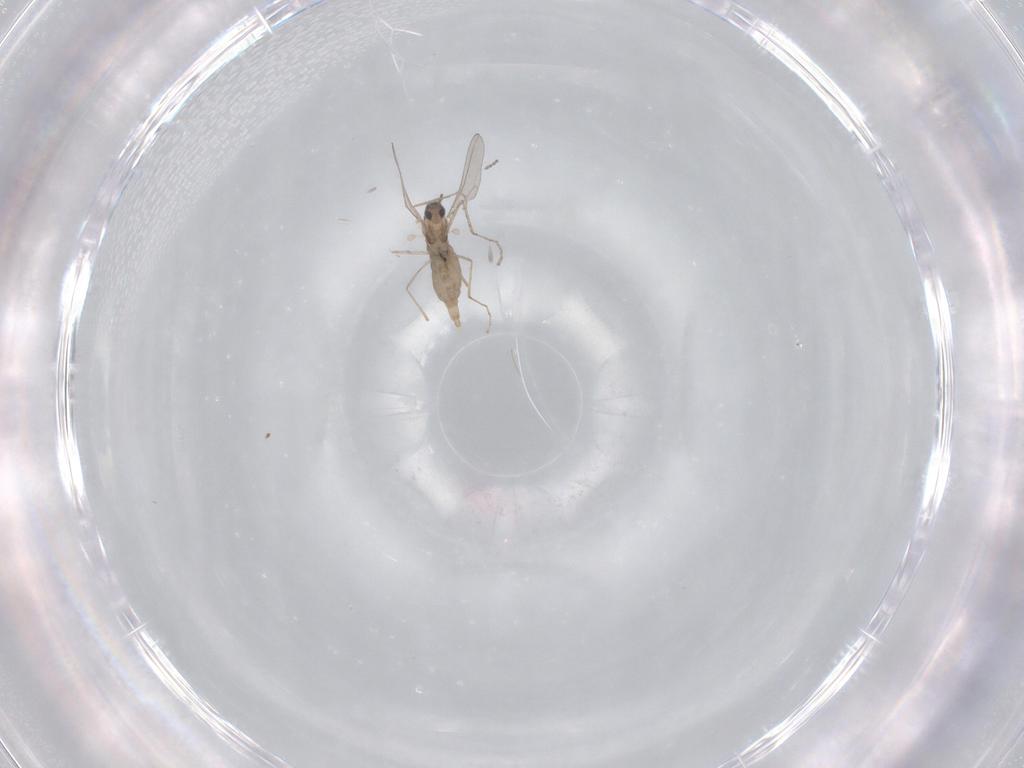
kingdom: Animalia
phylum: Arthropoda
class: Insecta
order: Diptera
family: Cecidomyiidae
